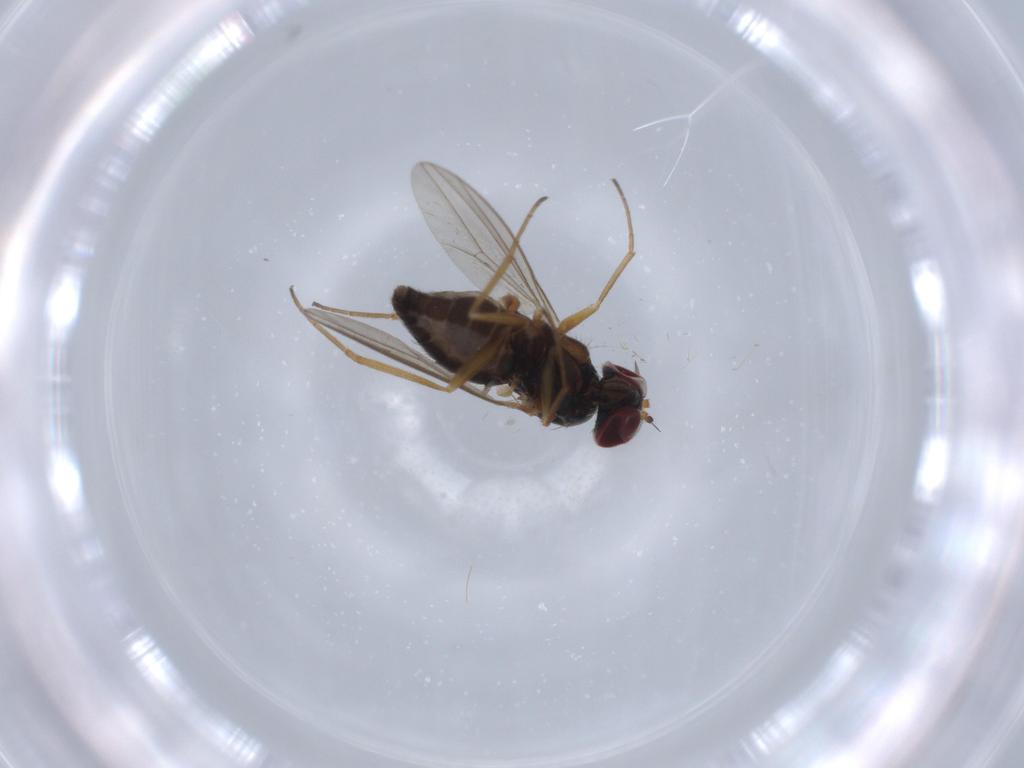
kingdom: Animalia
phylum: Arthropoda
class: Insecta
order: Diptera
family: Dolichopodidae
